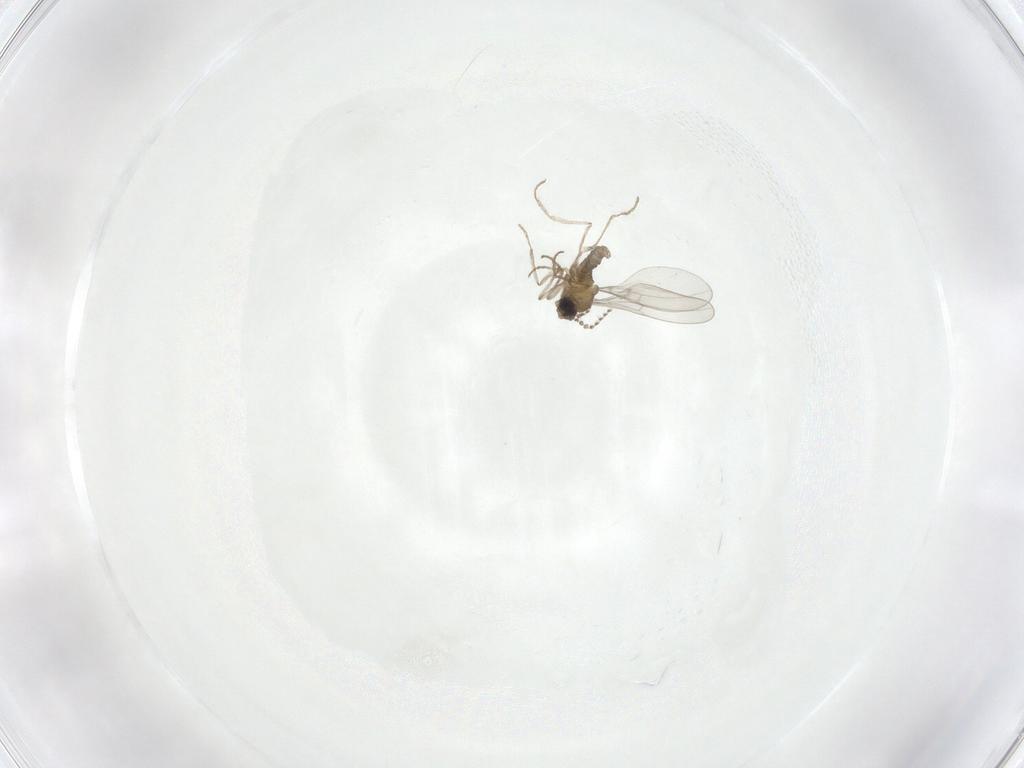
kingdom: Animalia
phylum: Arthropoda
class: Insecta
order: Diptera
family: Cecidomyiidae
